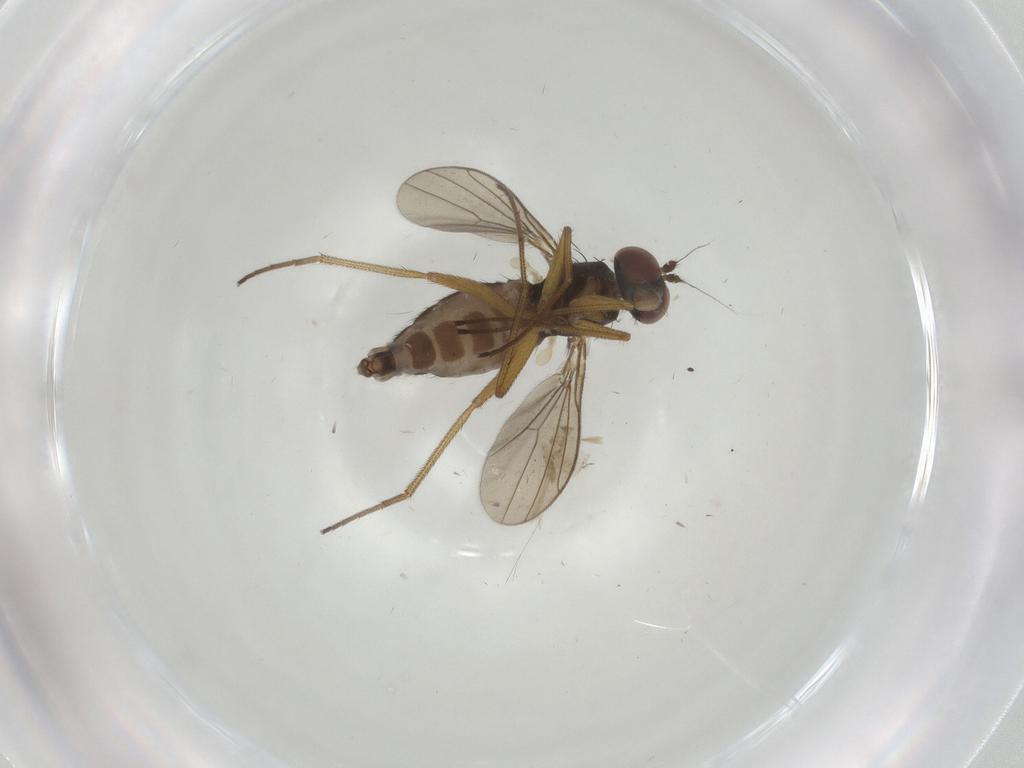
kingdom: Animalia
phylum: Arthropoda
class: Insecta
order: Diptera
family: Dolichopodidae
